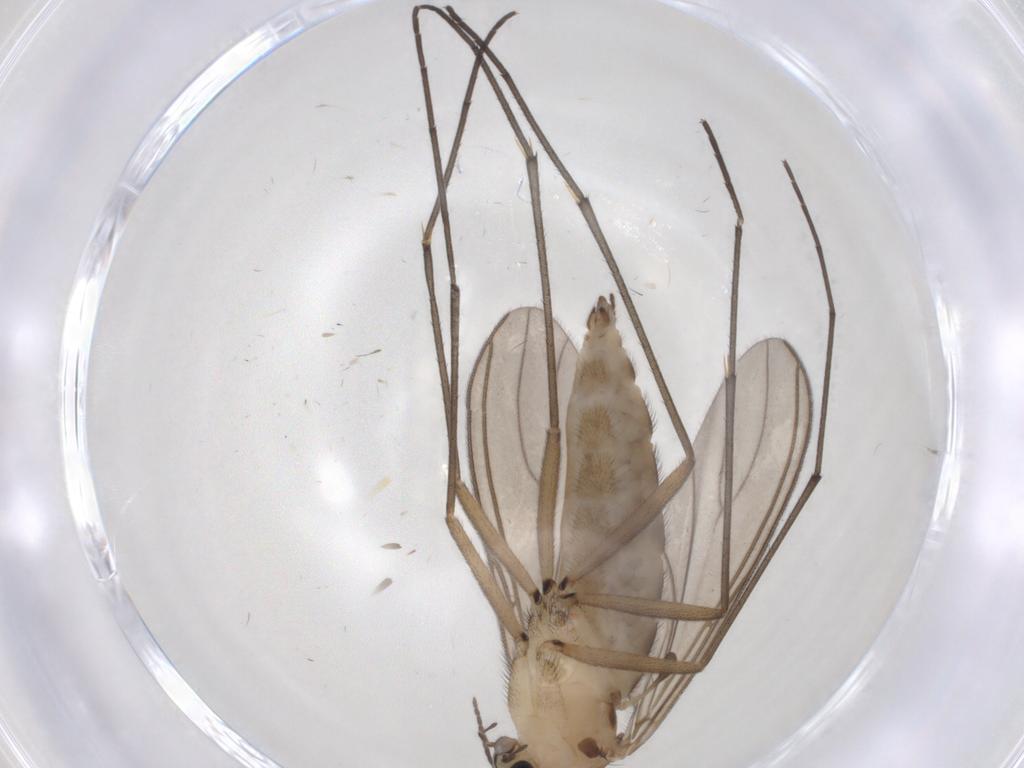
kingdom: Animalia
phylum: Arthropoda
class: Insecta
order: Diptera
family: Sciaridae
